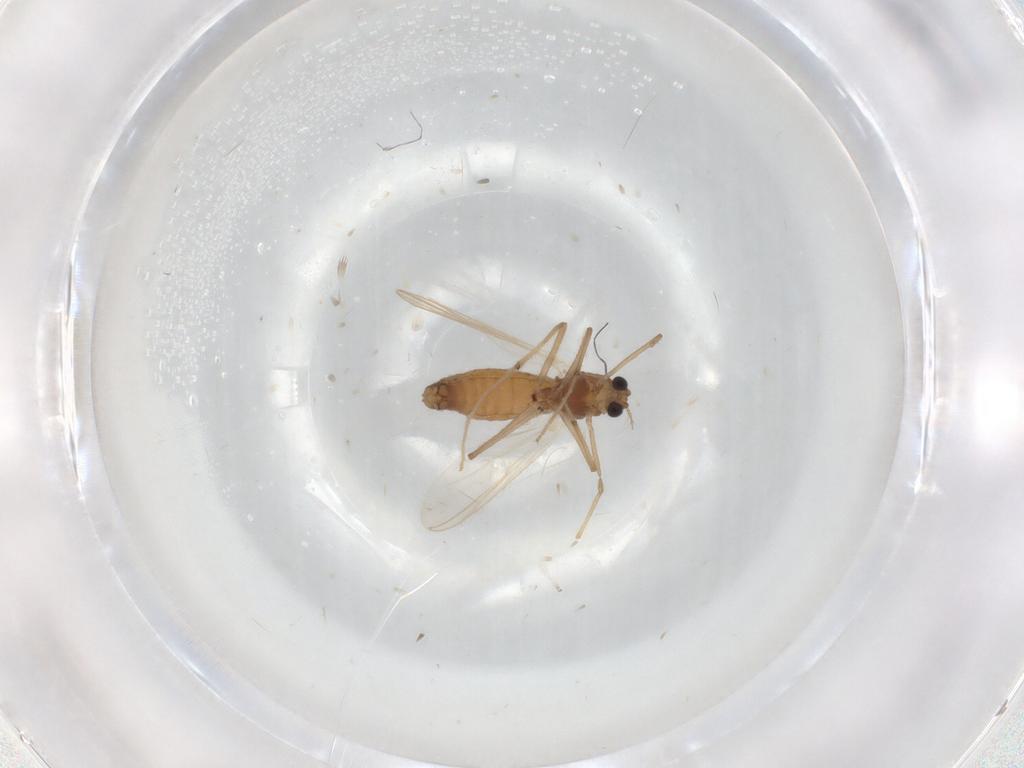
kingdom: Animalia
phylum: Arthropoda
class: Insecta
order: Diptera
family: Chironomidae
